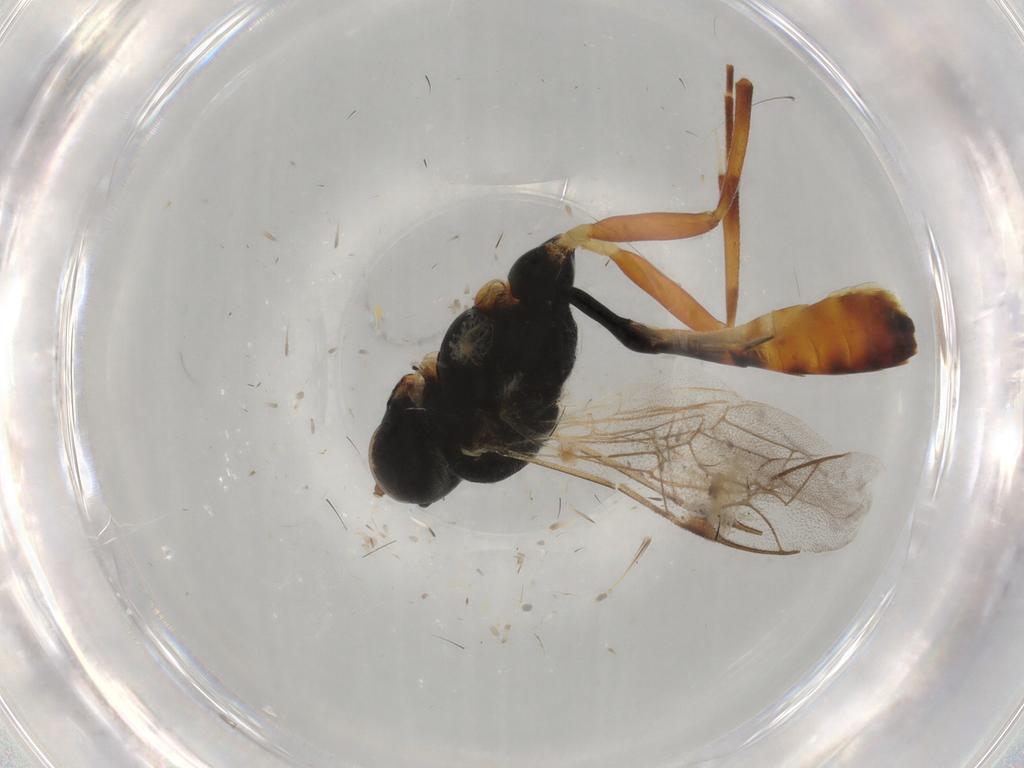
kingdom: Animalia
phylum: Arthropoda
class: Insecta
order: Hymenoptera
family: Ichneumonidae
